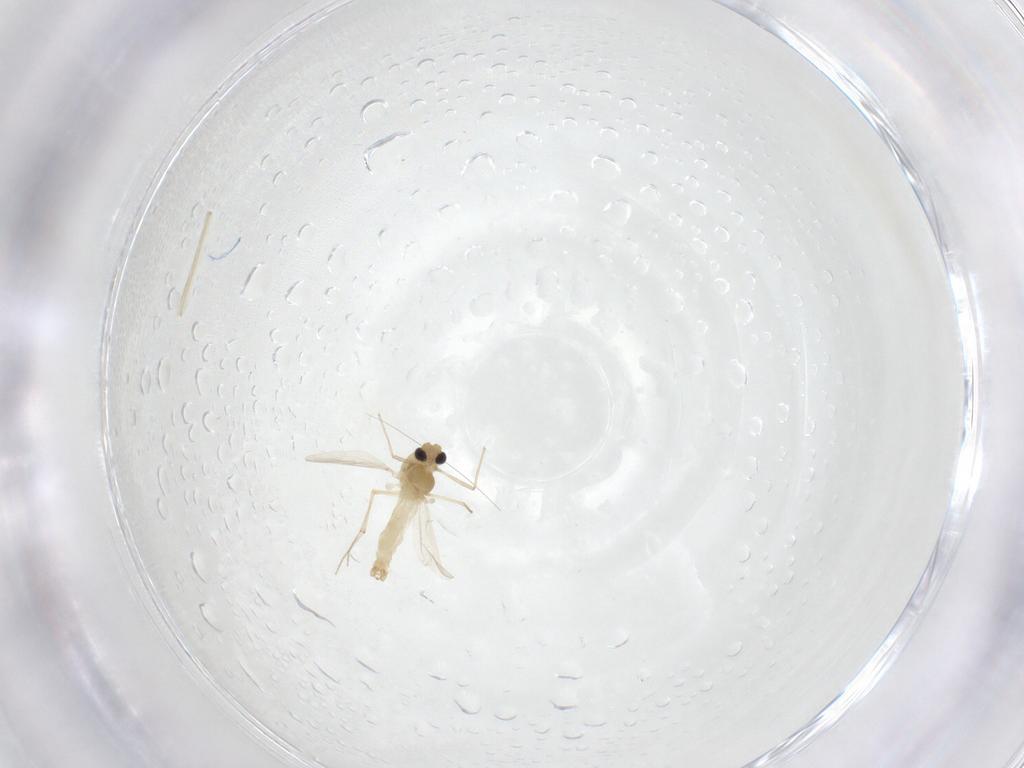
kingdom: Animalia
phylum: Arthropoda
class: Insecta
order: Diptera
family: Chironomidae
